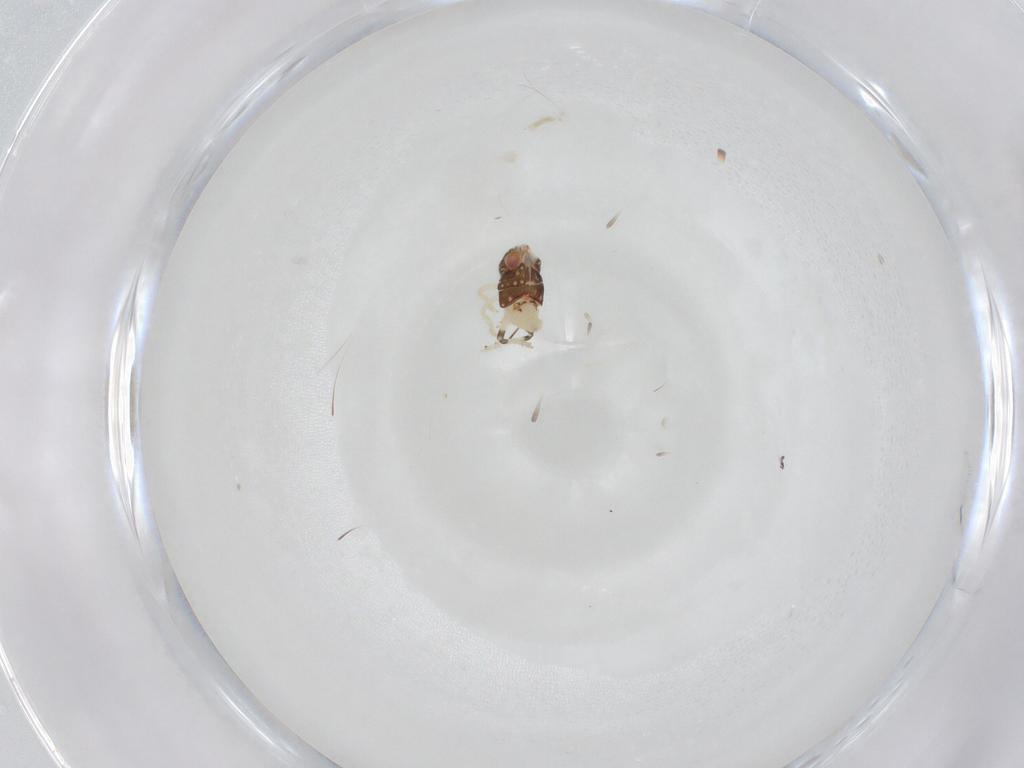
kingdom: Animalia
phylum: Arthropoda
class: Insecta
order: Hemiptera
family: Nogodinidae
